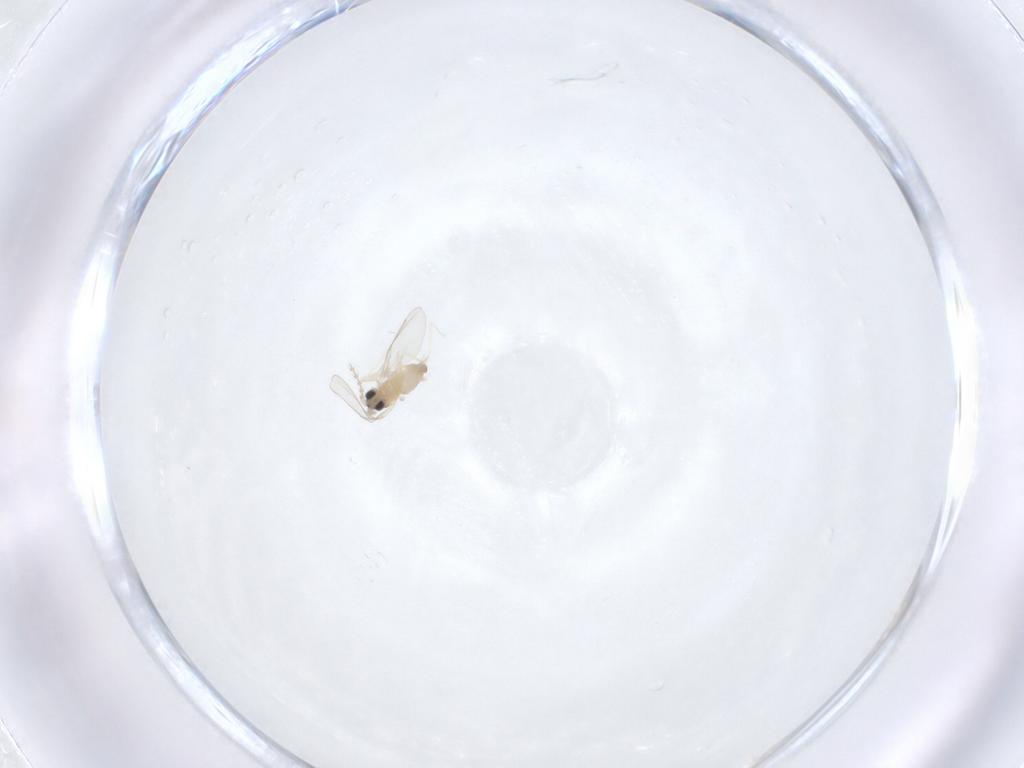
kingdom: Animalia
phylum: Arthropoda
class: Insecta
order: Diptera
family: Cecidomyiidae
